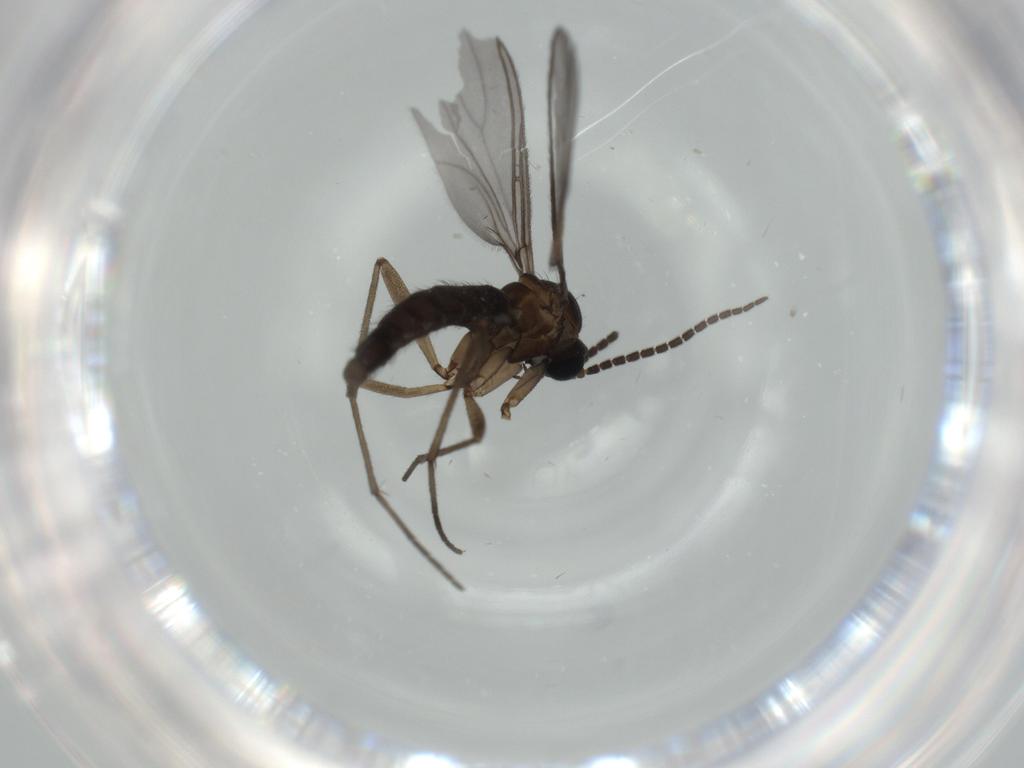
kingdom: Animalia
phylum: Arthropoda
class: Insecta
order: Diptera
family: Sciaridae
